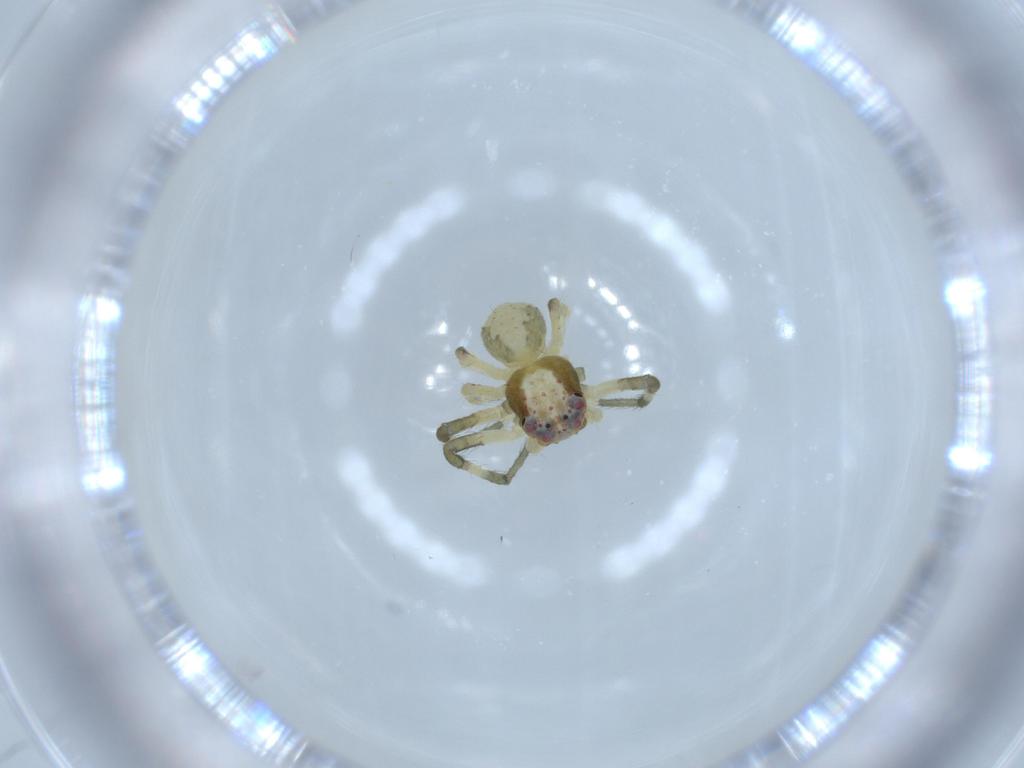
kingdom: Animalia
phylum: Arthropoda
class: Arachnida
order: Araneae
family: Thomisidae
